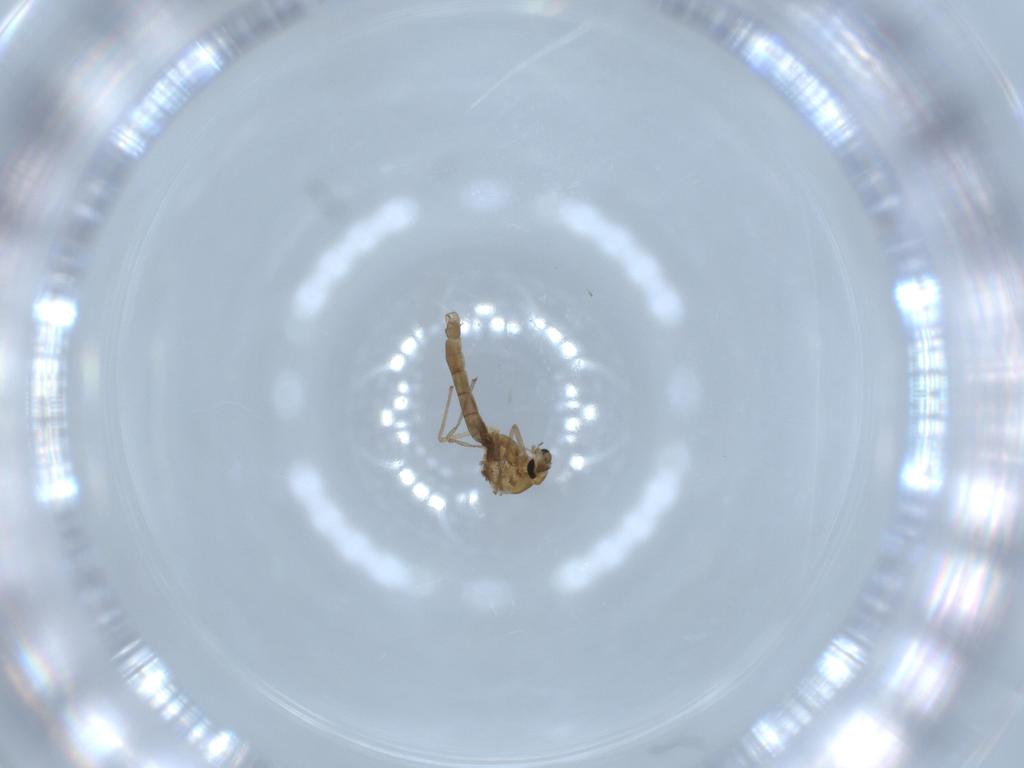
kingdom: Animalia
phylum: Arthropoda
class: Insecta
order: Diptera
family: Chironomidae
